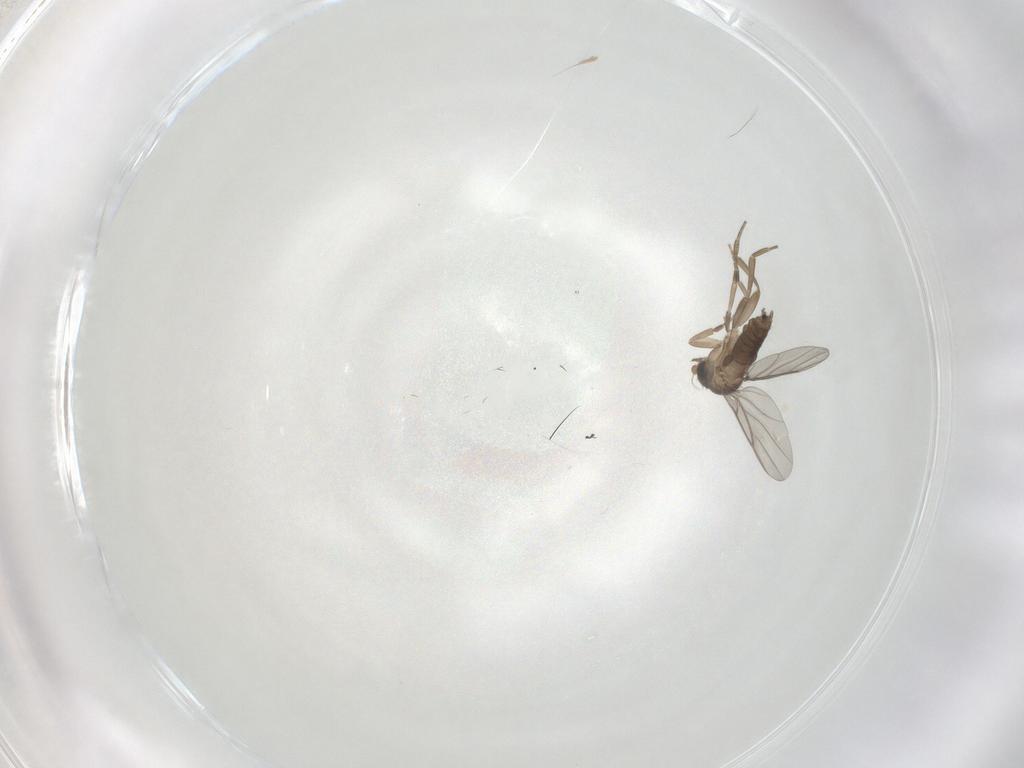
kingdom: Animalia
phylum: Arthropoda
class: Insecta
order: Diptera
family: Phoridae
